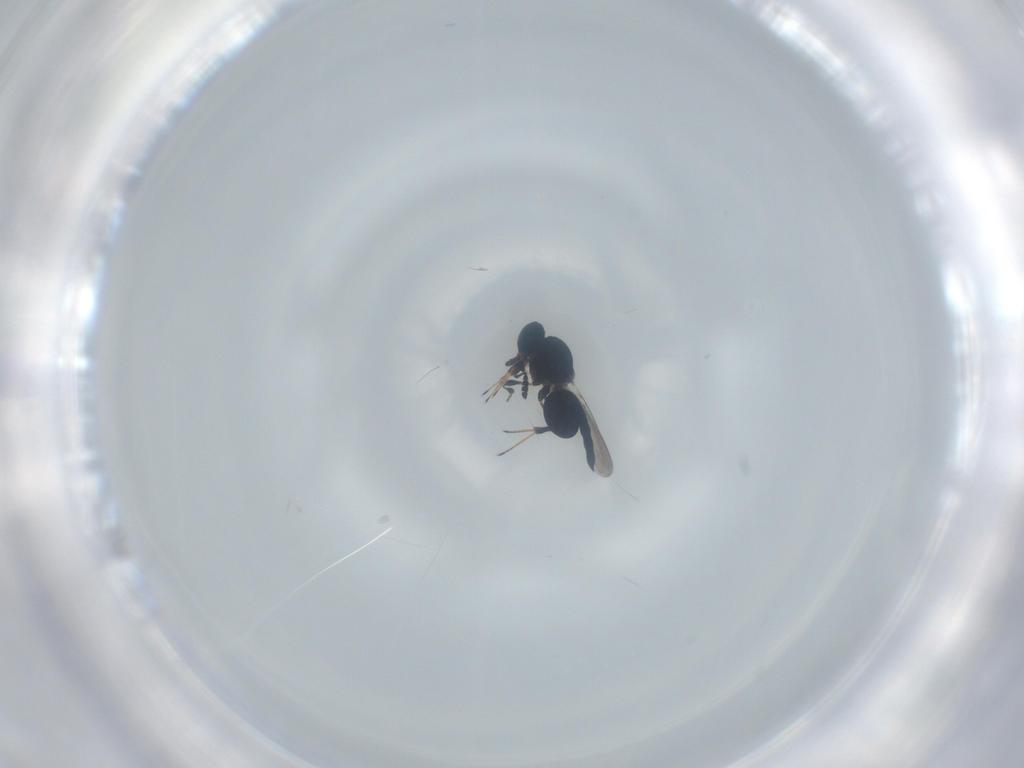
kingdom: Animalia
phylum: Arthropoda
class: Insecta
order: Hymenoptera
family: Platygastridae
